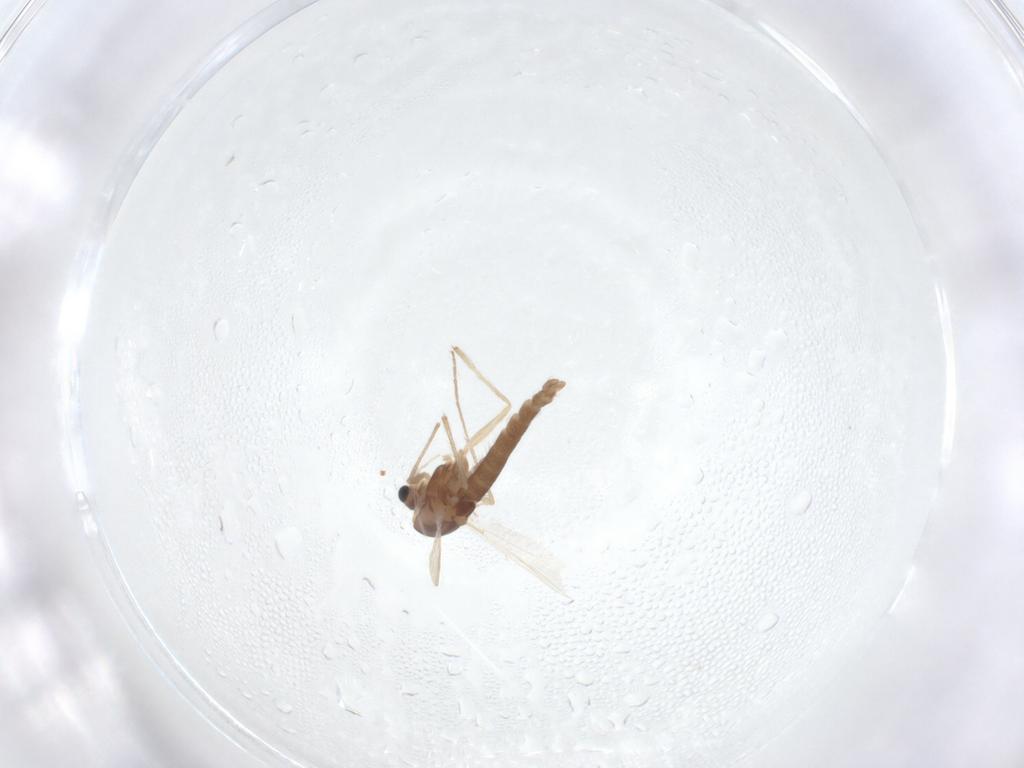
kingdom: Animalia
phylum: Arthropoda
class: Insecta
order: Diptera
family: Chironomidae
